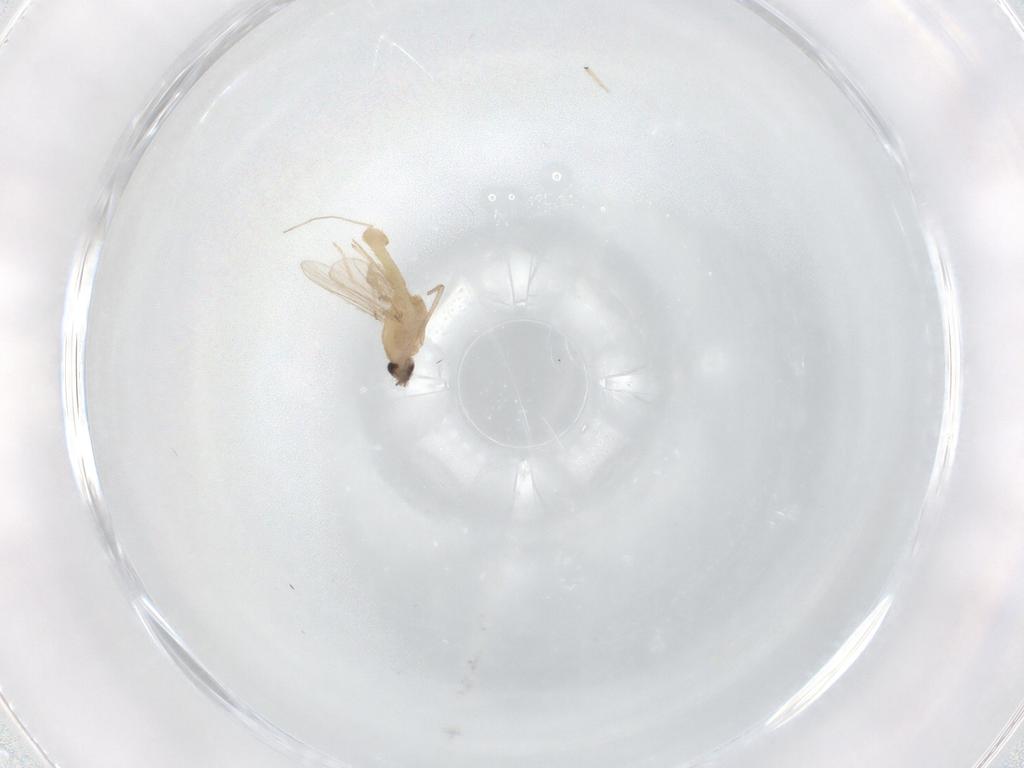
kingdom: Animalia
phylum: Arthropoda
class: Insecta
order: Diptera
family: Chironomidae
